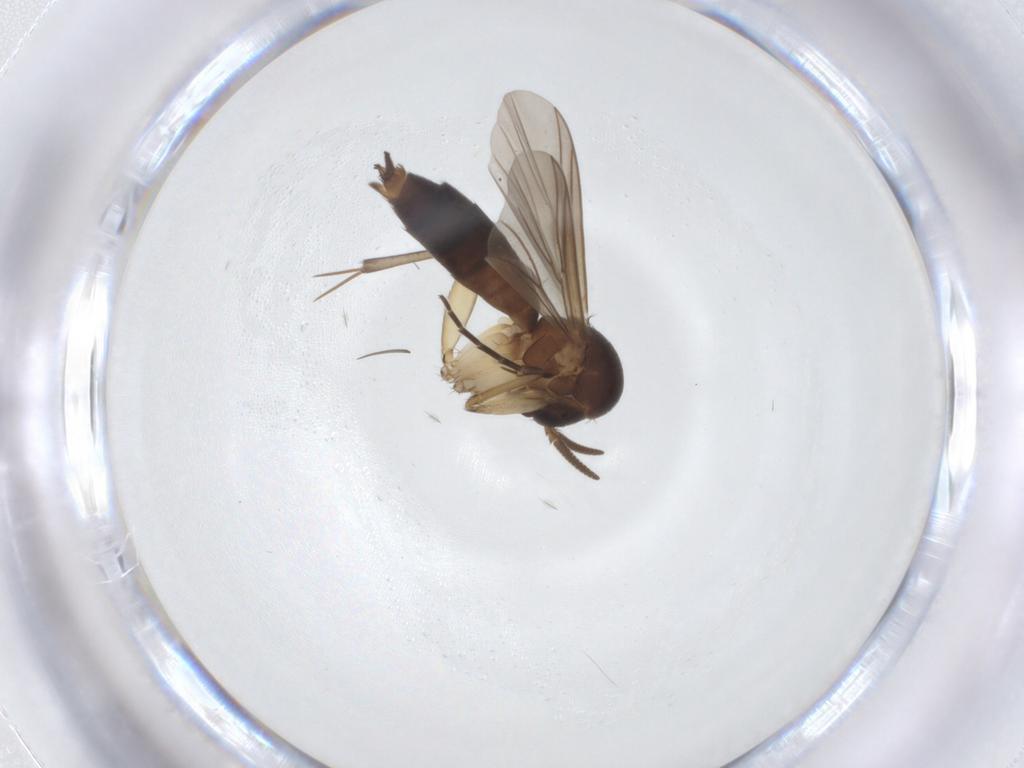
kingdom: Animalia
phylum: Arthropoda
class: Insecta
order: Diptera
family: Mycetophilidae
